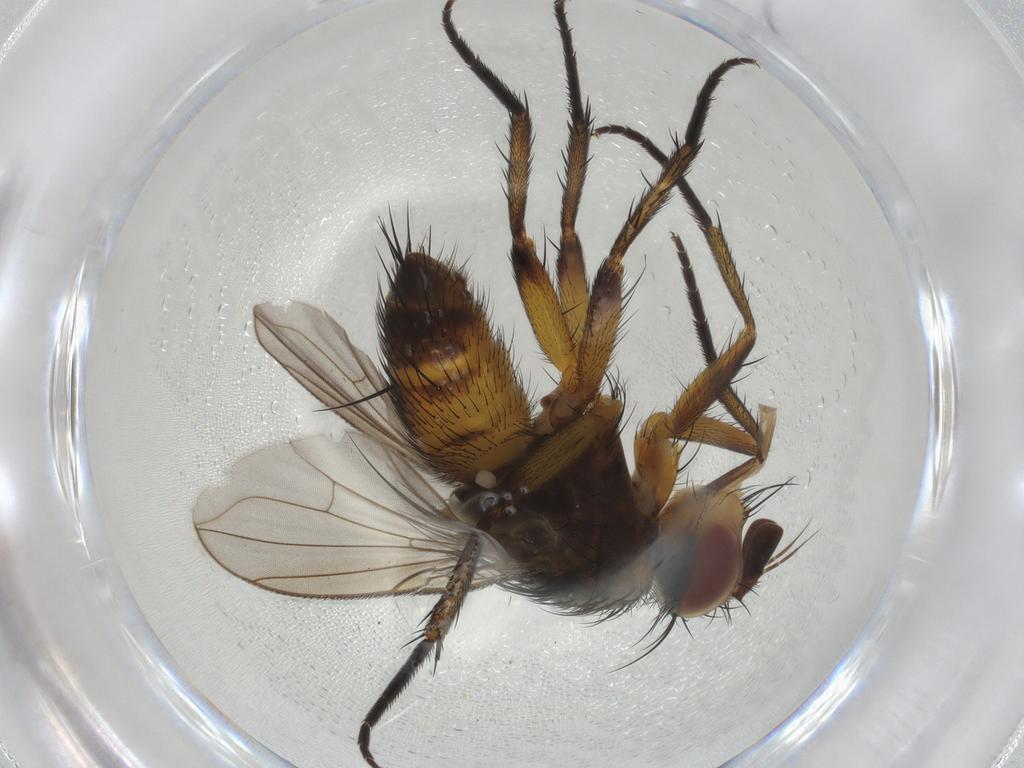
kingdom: Animalia
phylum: Arthropoda
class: Insecta
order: Diptera
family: Tachinidae
